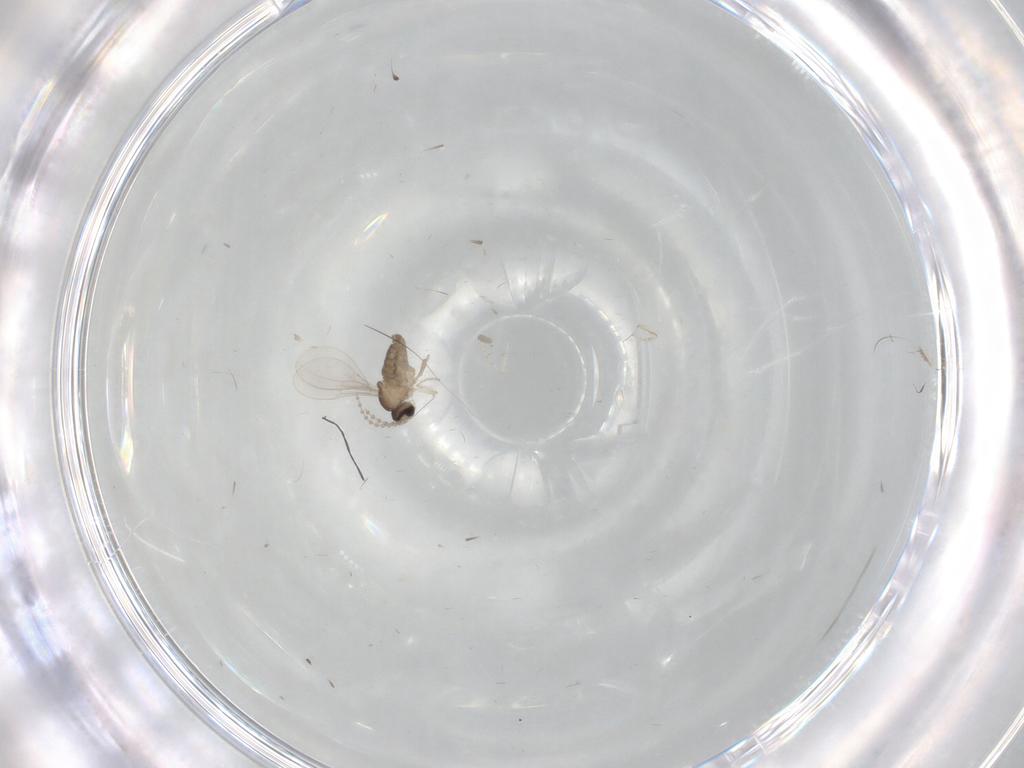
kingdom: Animalia
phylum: Arthropoda
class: Insecta
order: Diptera
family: Cecidomyiidae
